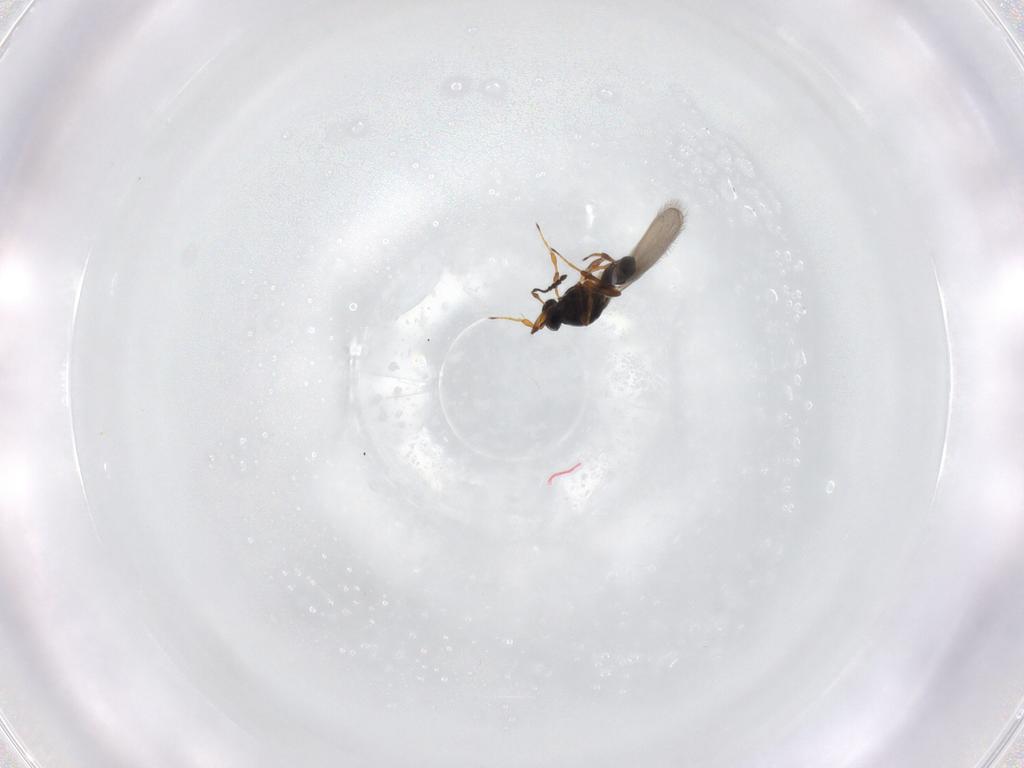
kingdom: Animalia
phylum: Arthropoda
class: Insecta
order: Hymenoptera
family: Platygastridae
